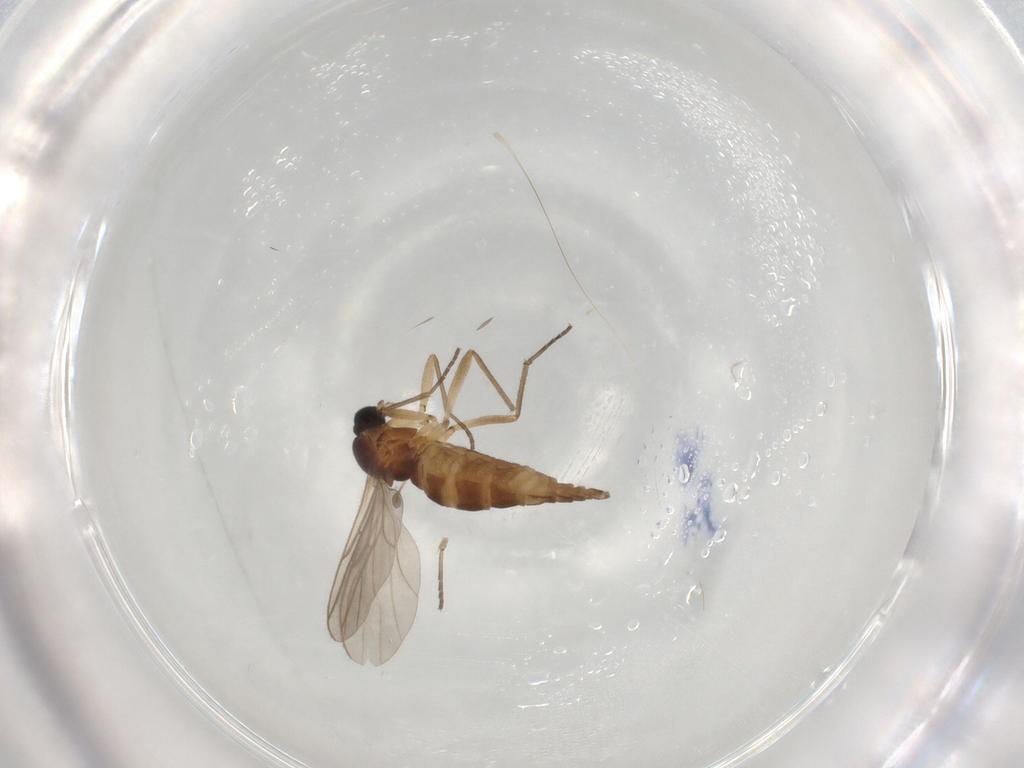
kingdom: Animalia
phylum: Arthropoda
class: Insecta
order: Diptera
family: Sciaridae
